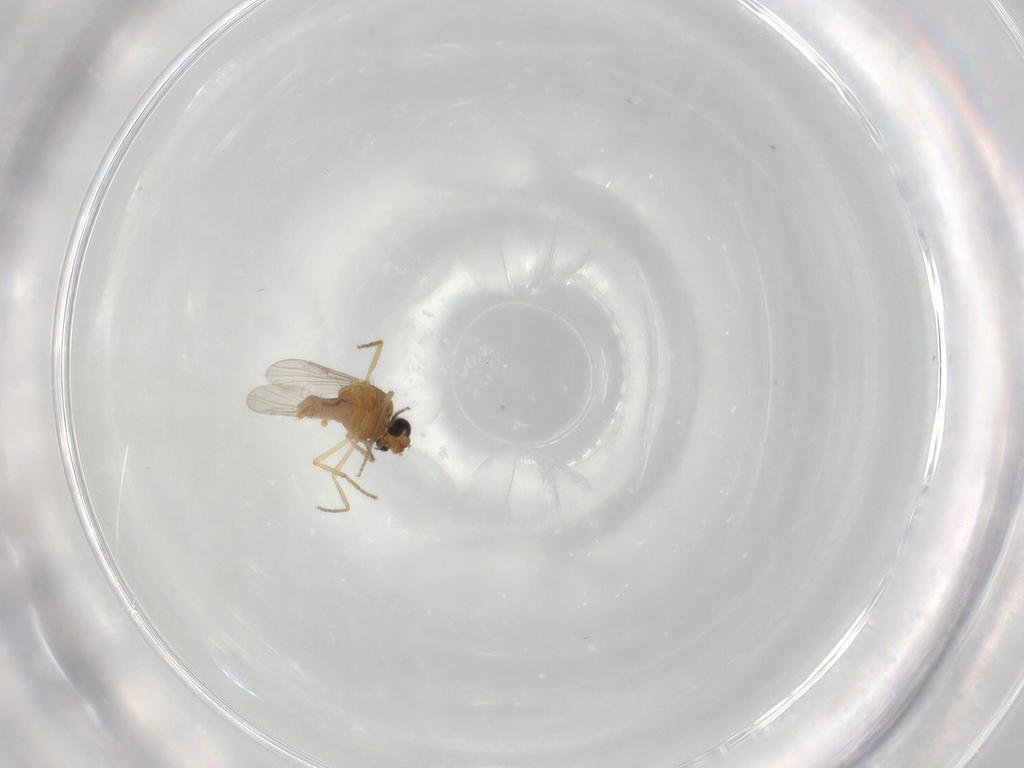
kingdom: Animalia
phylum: Arthropoda
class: Insecta
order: Diptera
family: Ceratopogonidae
